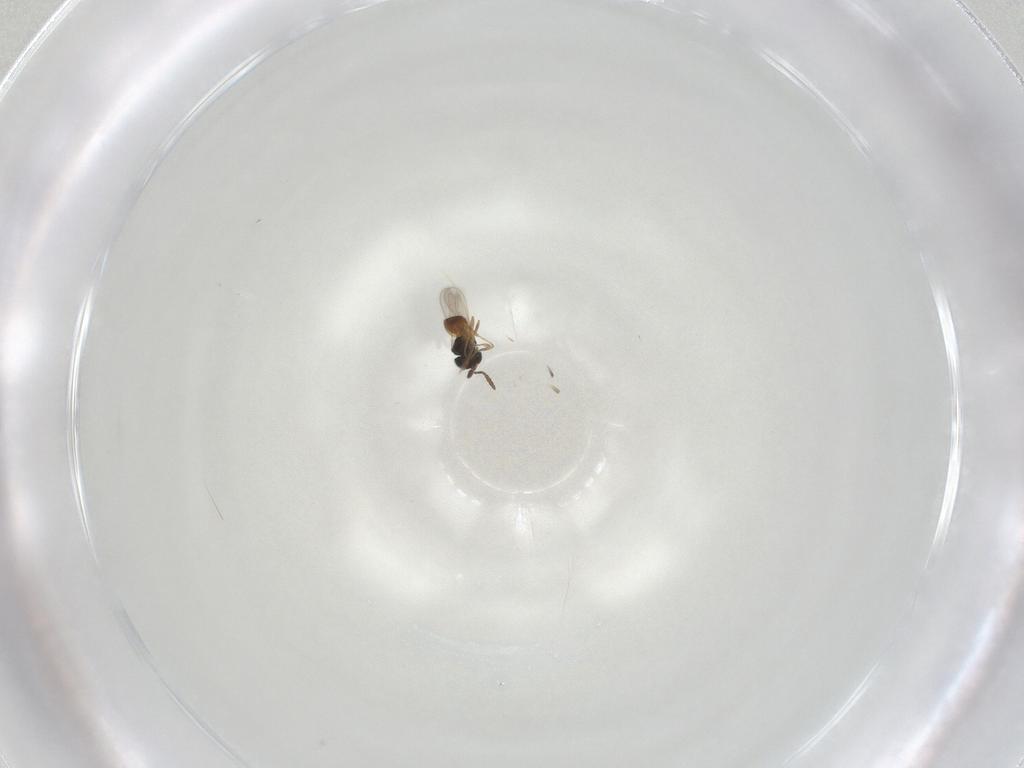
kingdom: Animalia
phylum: Arthropoda
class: Insecta
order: Hymenoptera
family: Scelionidae
